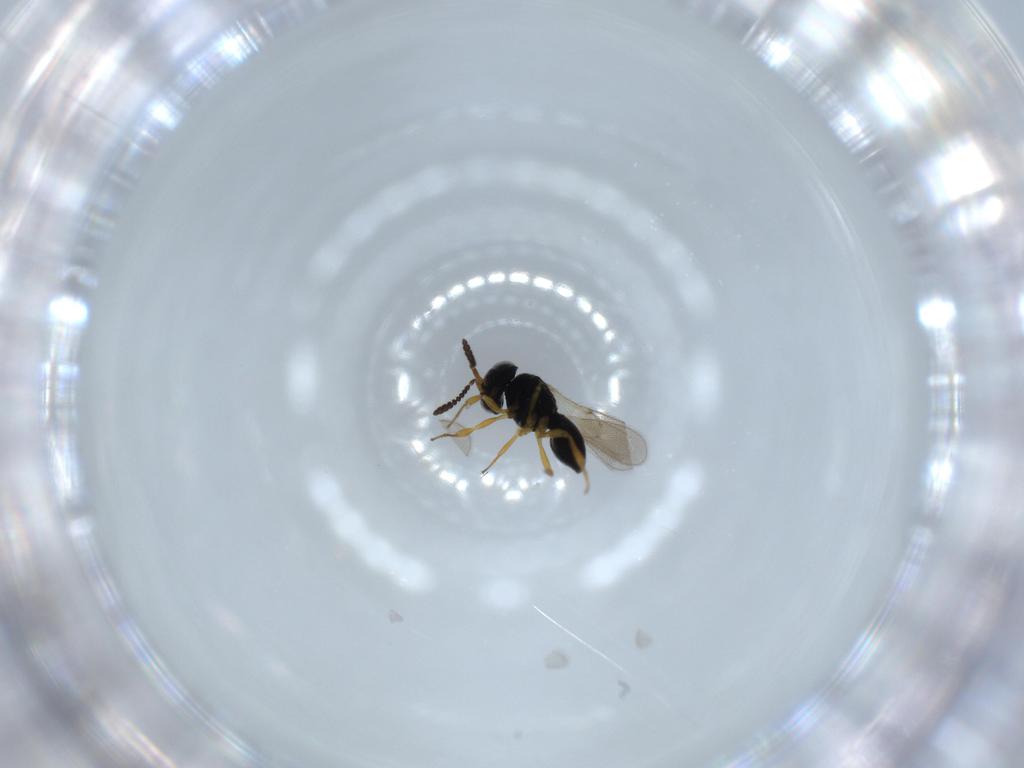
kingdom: Animalia
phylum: Arthropoda
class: Insecta
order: Hymenoptera
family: Scelionidae
